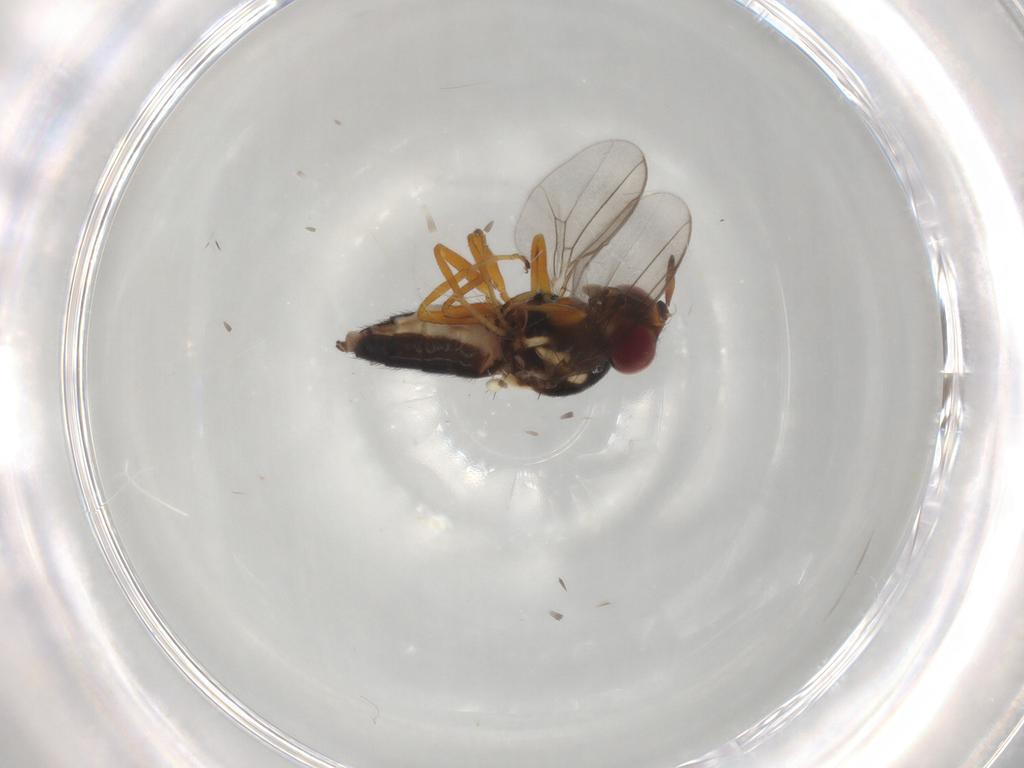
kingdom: Animalia
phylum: Arthropoda
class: Insecta
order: Diptera
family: Chloropidae
